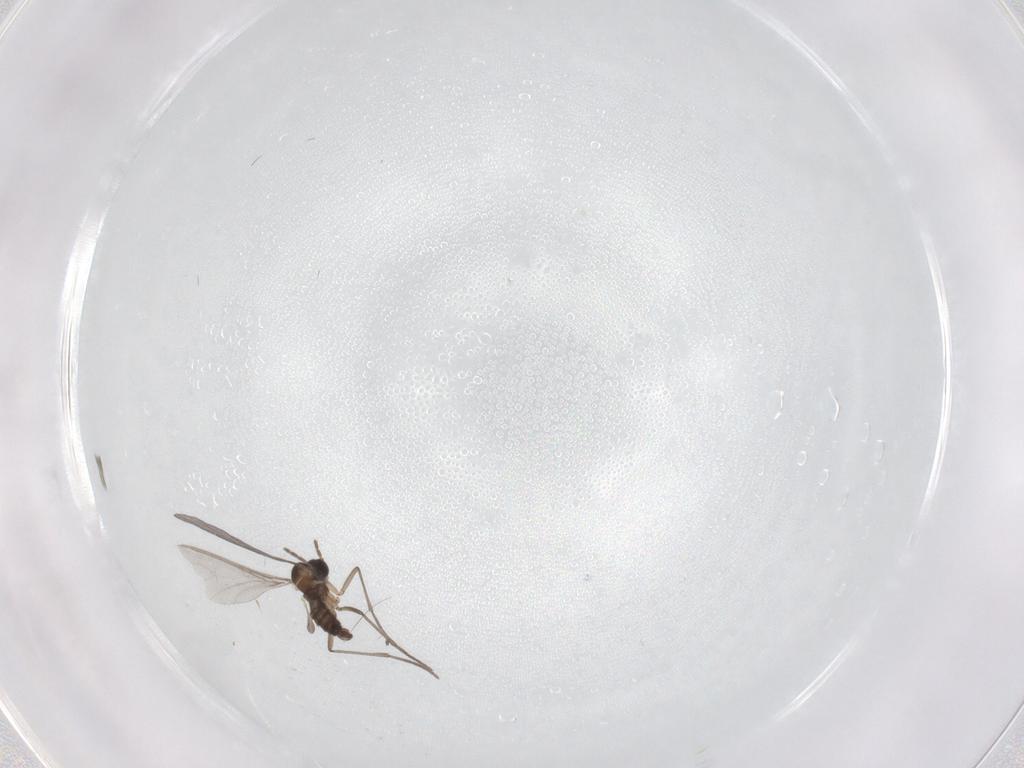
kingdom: Animalia
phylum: Arthropoda
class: Insecta
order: Diptera
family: Sciaridae
